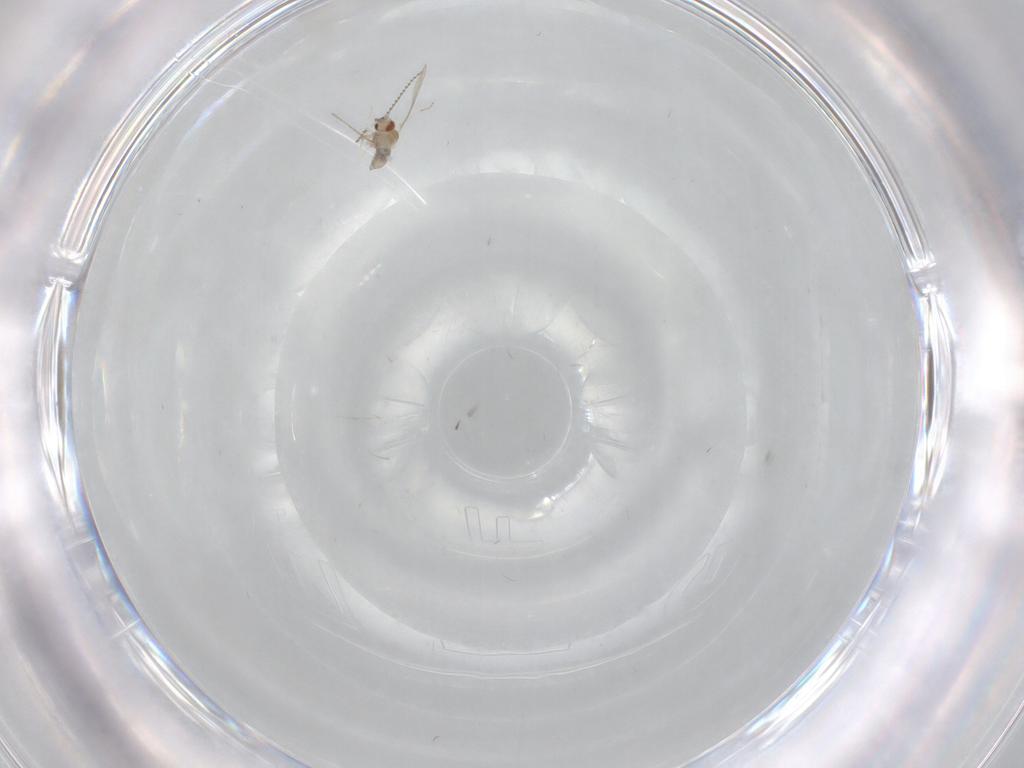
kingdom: Animalia
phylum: Arthropoda
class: Insecta
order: Diptera
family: Cecidomyiidae
